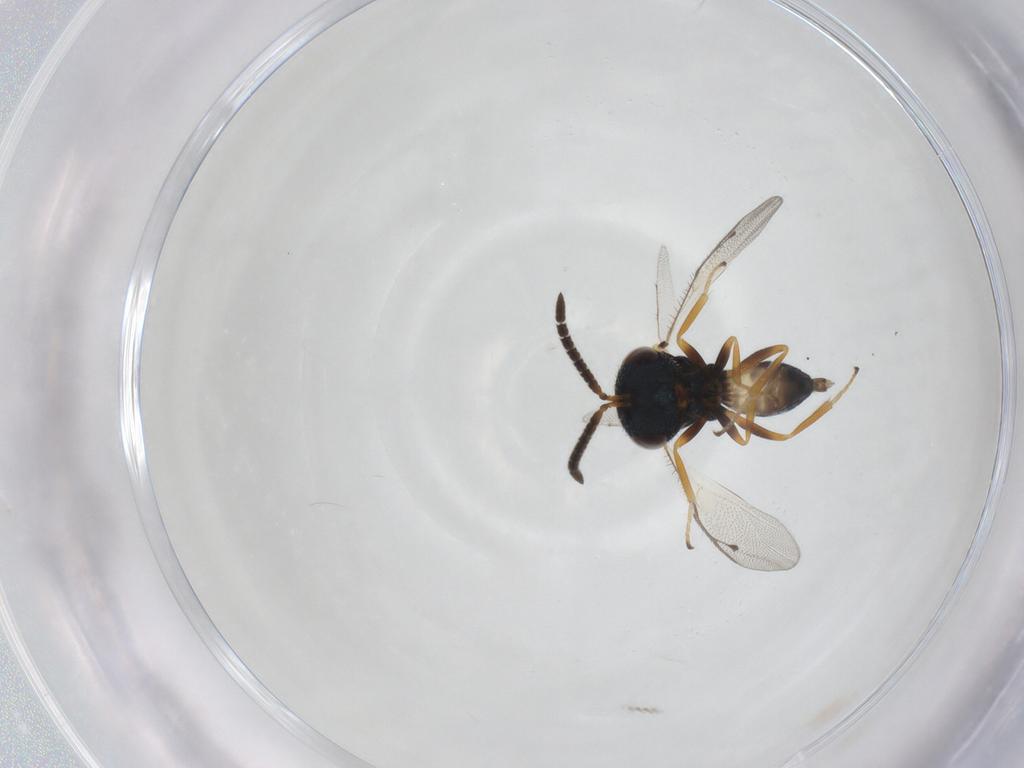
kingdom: Animalia
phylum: Arthropoda
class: Insecta
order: Hymenoptera
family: Pteromalidae
